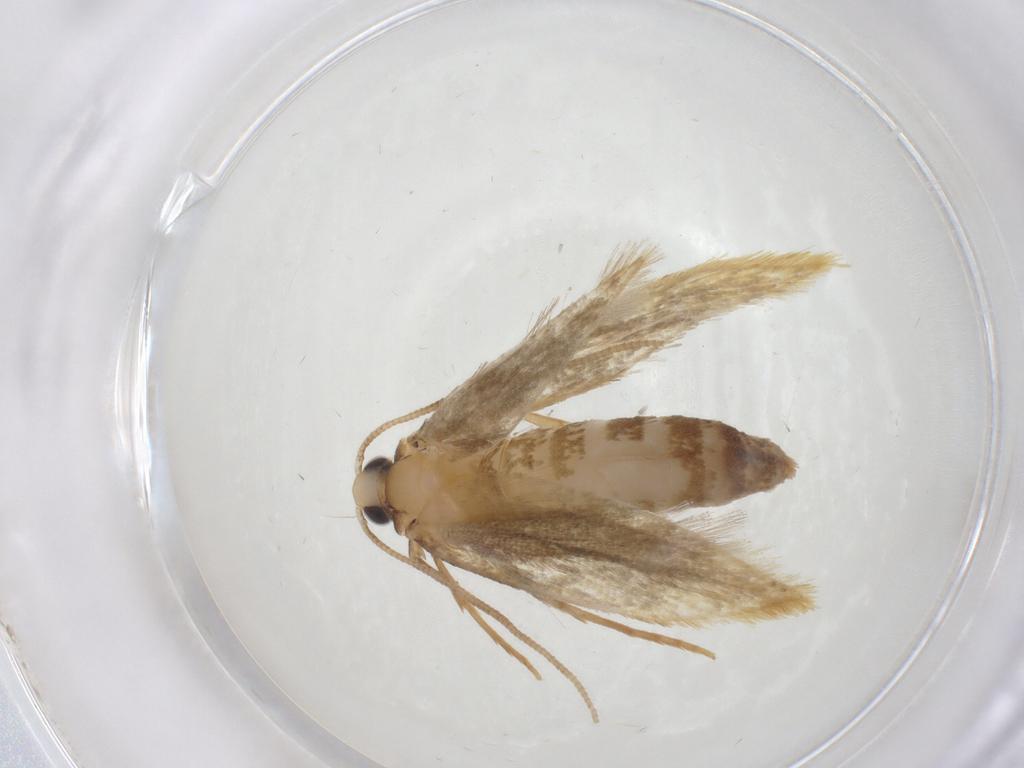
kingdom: Animalia
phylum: Arthropoda
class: Insecta
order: Lepidoptera
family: Tineidae
